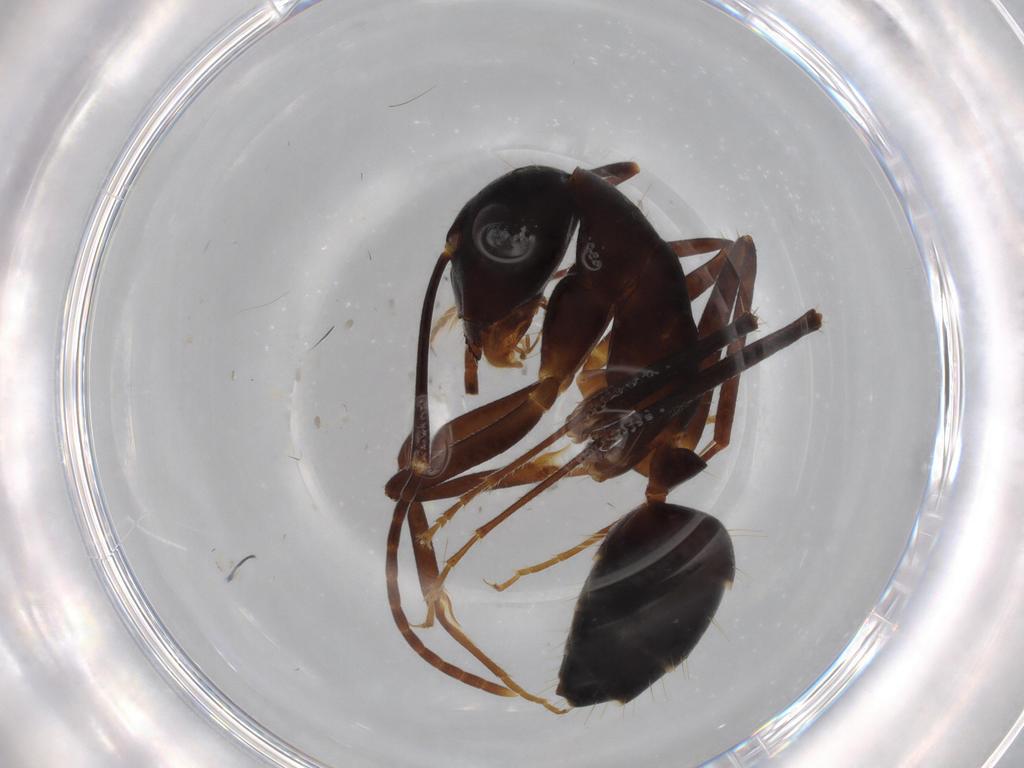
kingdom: Animalia
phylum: Arthropoda
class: Insecta
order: Hymenoptera
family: Formicidae
